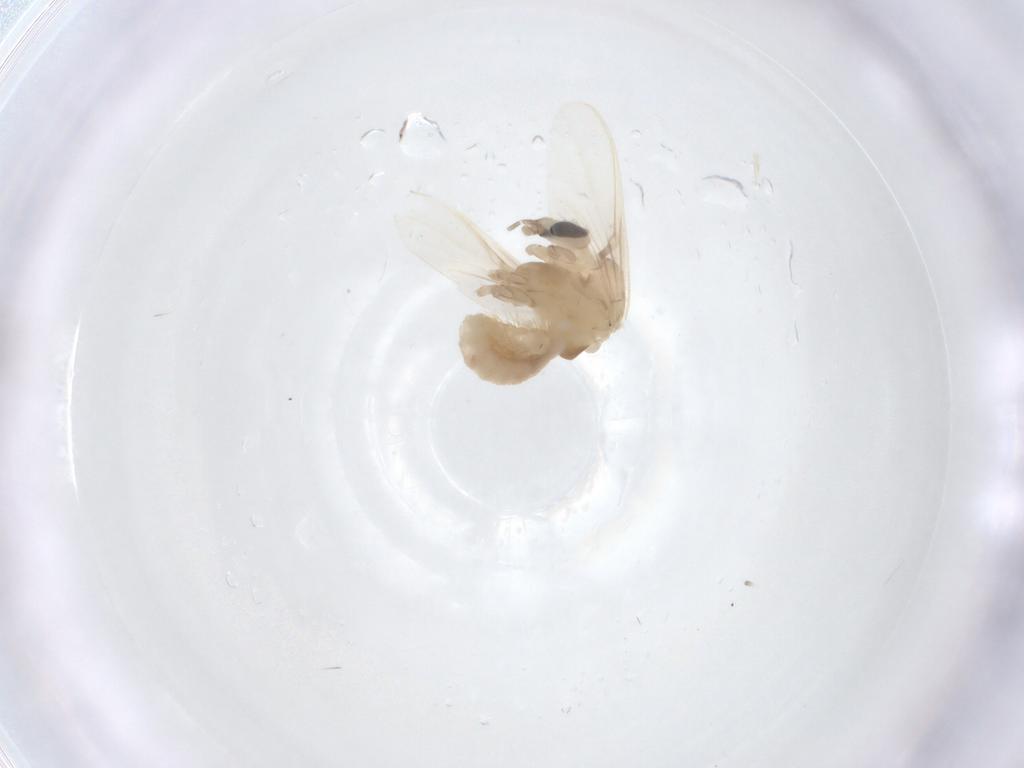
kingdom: Animalia
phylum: Arthropoda
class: Insecta
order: Diptera
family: Chironomidae
